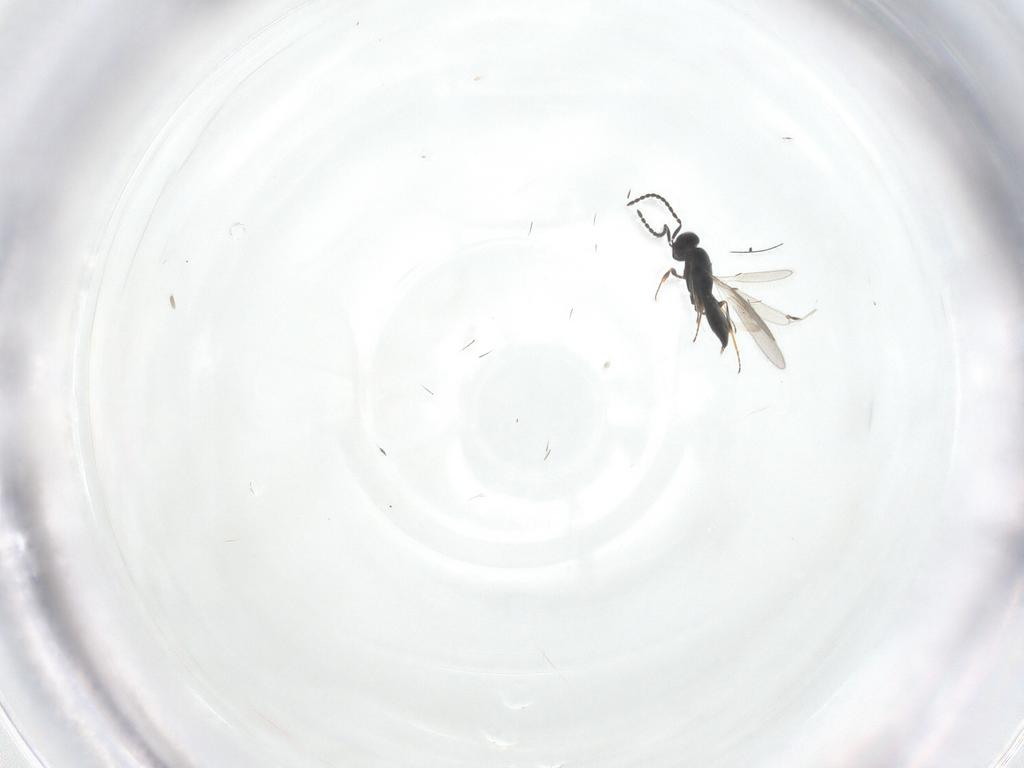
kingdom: Animalia
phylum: Arthropoda
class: Insecta
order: Hymenoptera
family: Scelionidae
